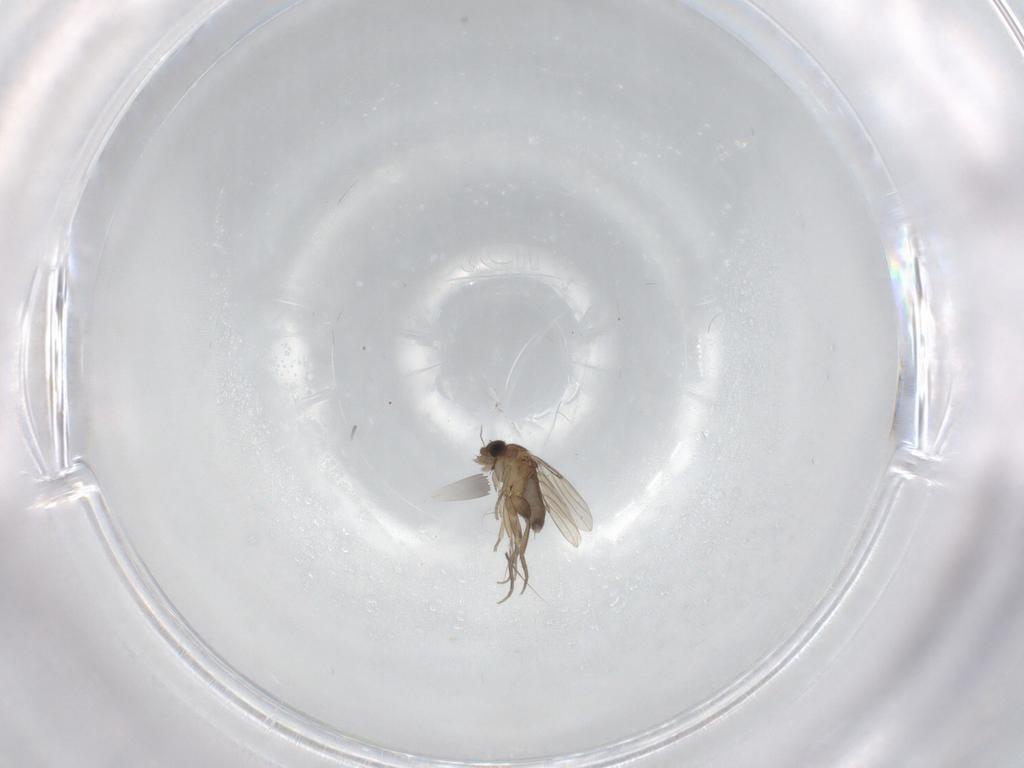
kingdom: Animalia
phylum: Arthropoda
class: Insecta
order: Diptera
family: Phoridae
